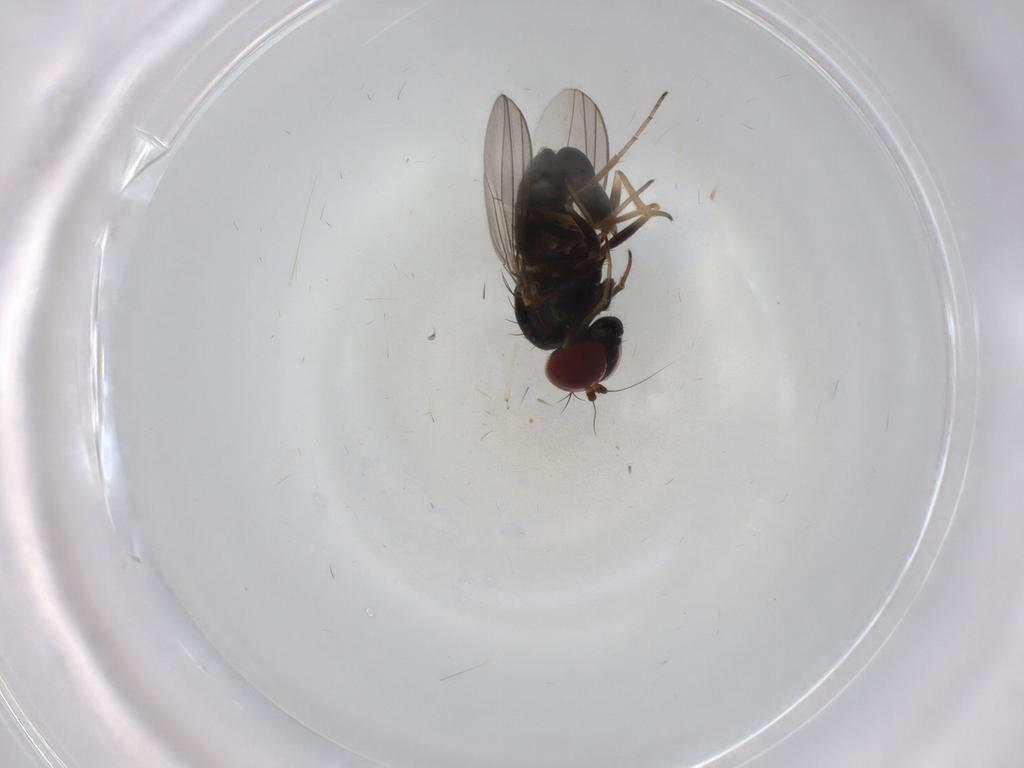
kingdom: Animalia
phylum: Arthropoda
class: Insecta
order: Diptera
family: Dolichopodidae
